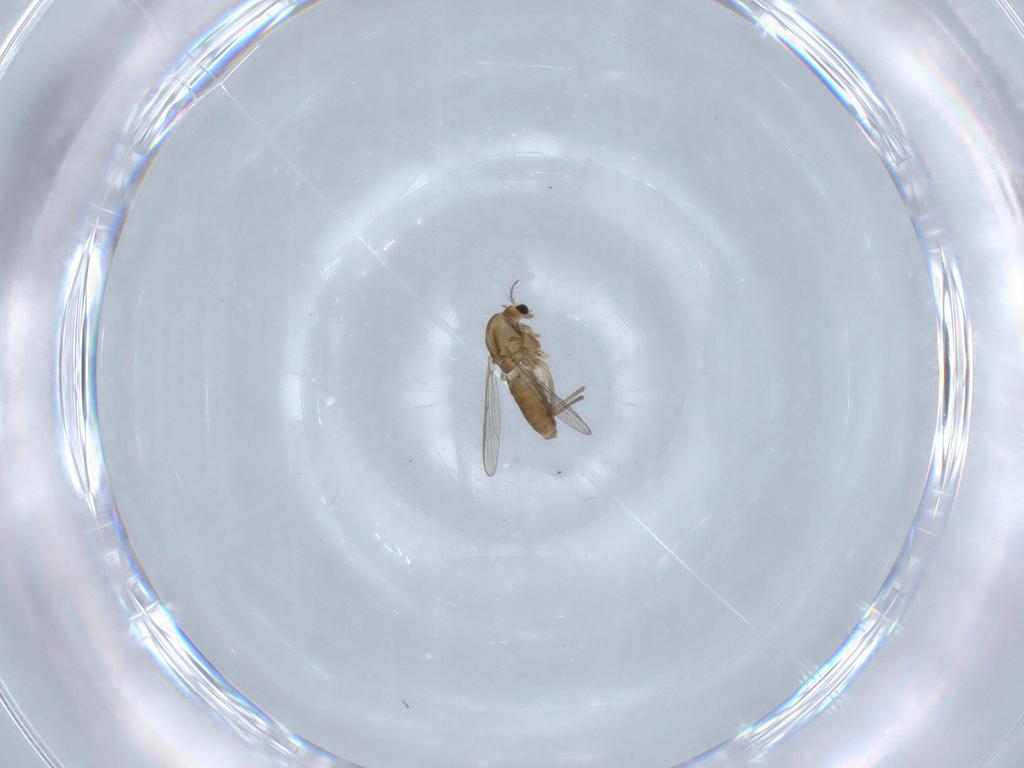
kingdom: Animalia
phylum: Arthropoda
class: Insecta
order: Diptera
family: Chironomidae
